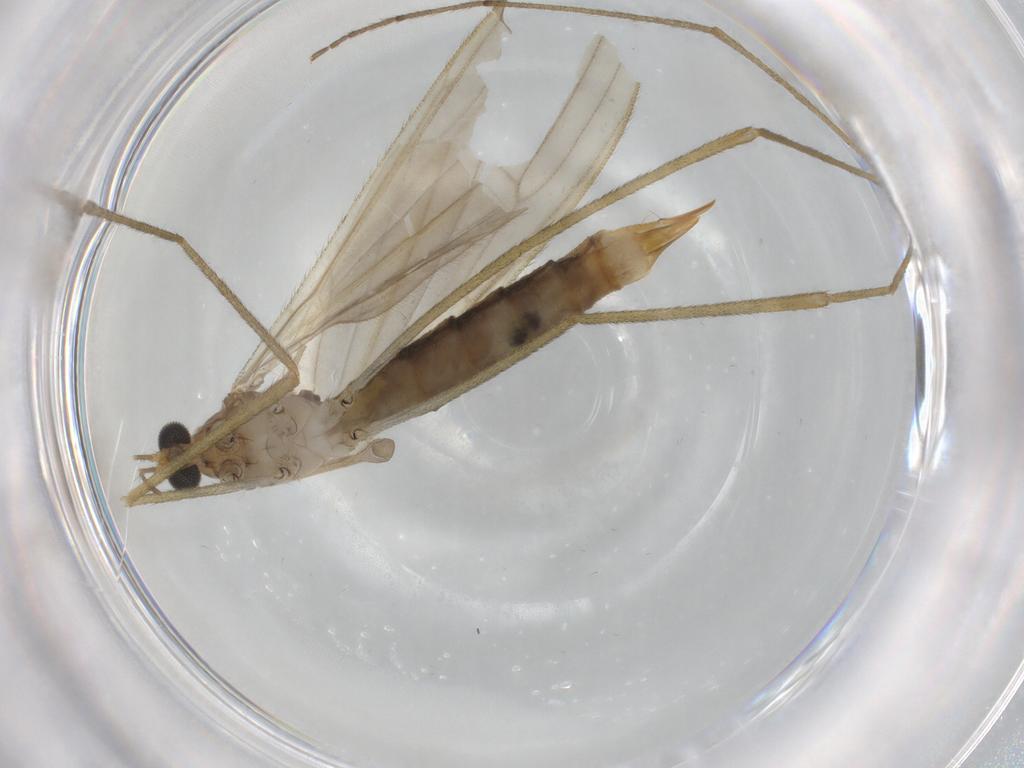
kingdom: Animalia
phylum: Arthropoda
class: Insecta
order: Diptera
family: Limoniidae
